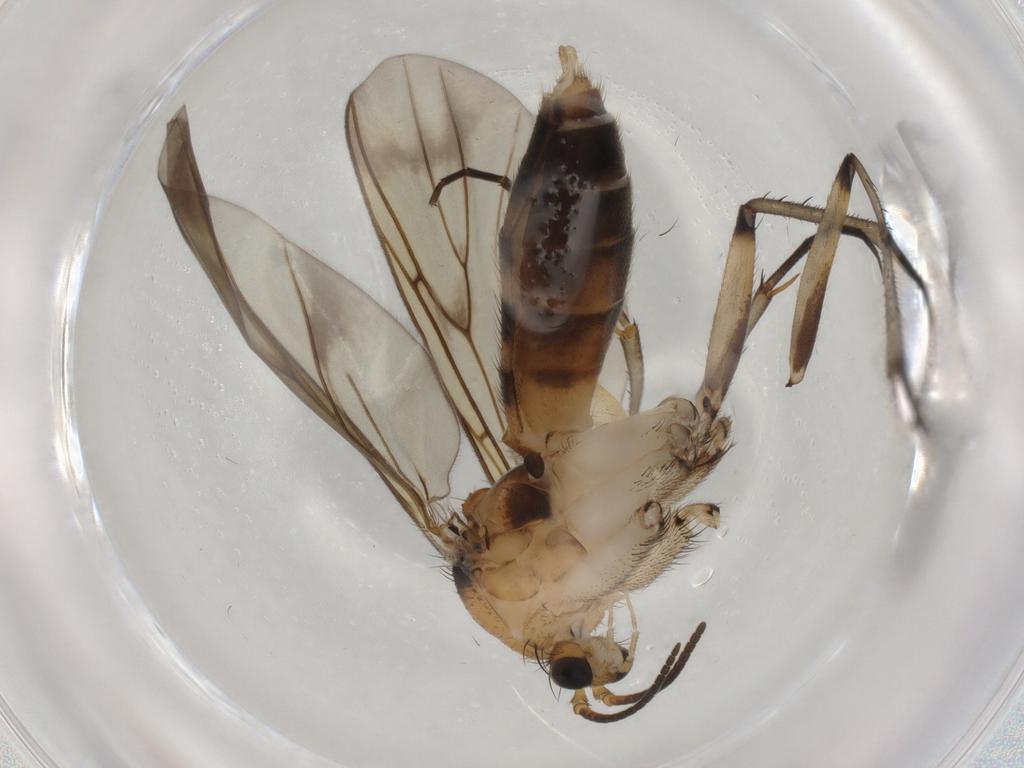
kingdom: Animalia
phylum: Arthropoda
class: Insecta
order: Diptera
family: Mycetophilidae
